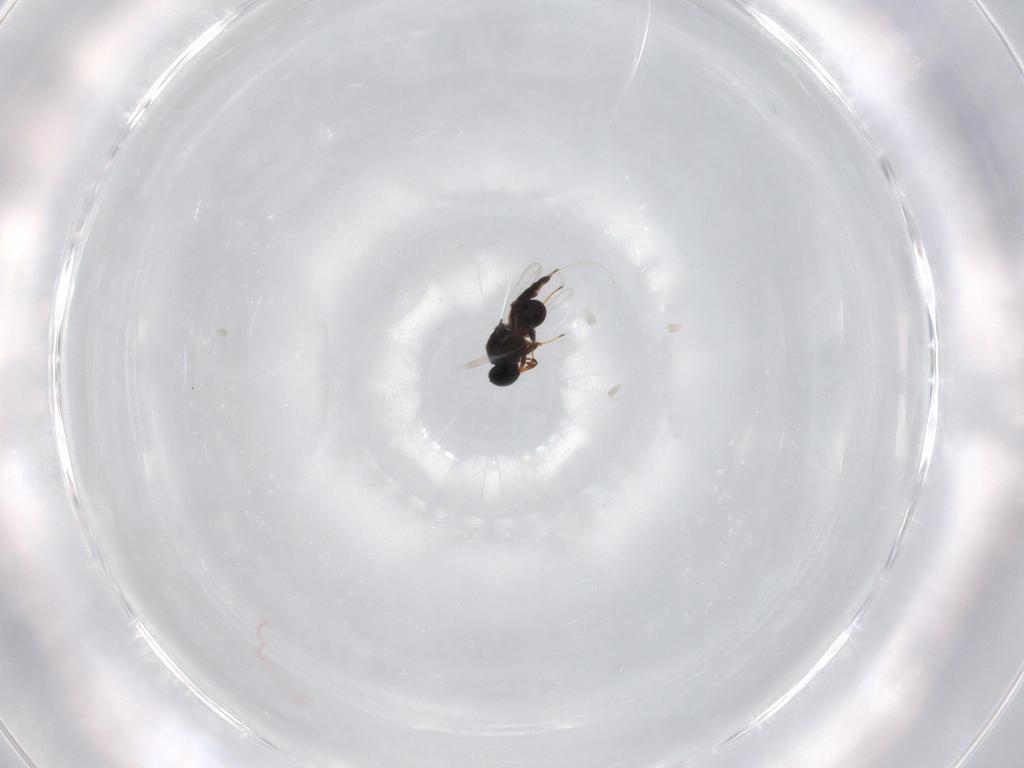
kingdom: Animalia
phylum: Arthropoda
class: Insecta
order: Hymenoptera
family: Platygastridae
